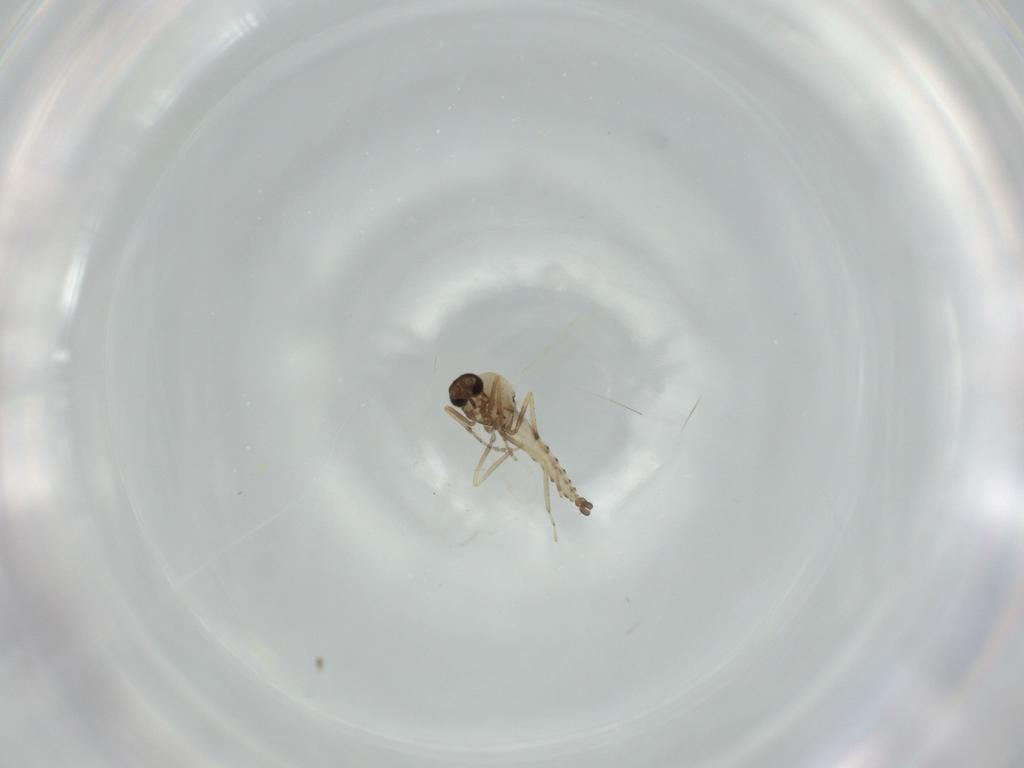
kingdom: Animalia
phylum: Arthropoda
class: Insecta
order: Diptera
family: Ceratopogonidae
